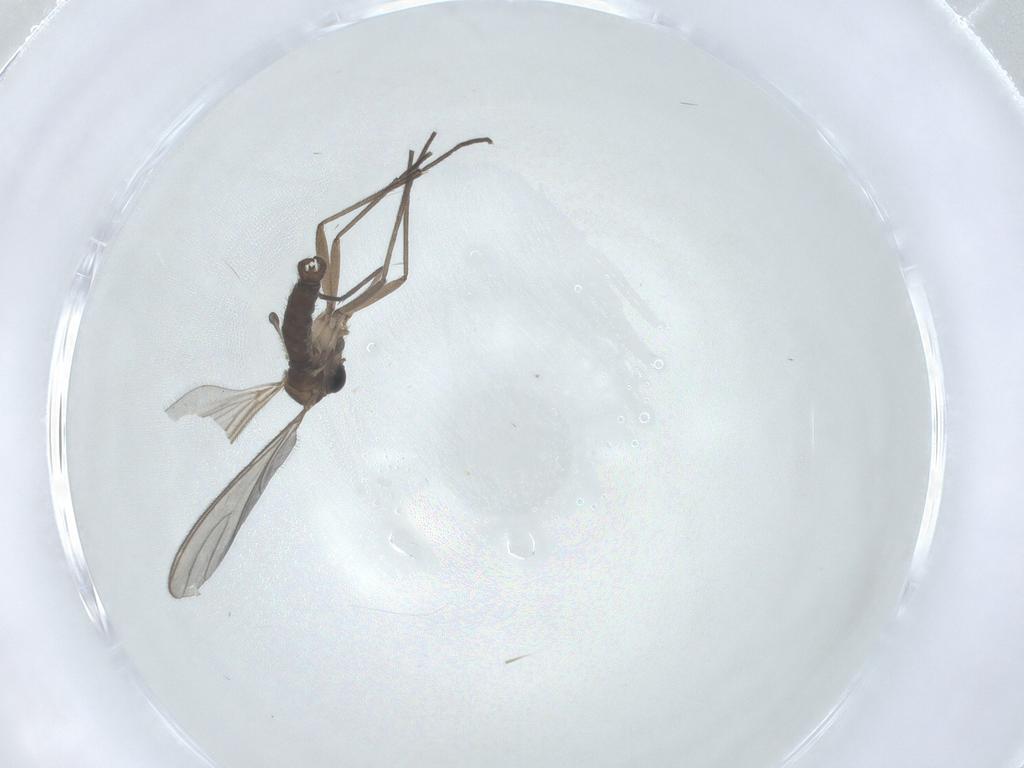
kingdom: Animalia
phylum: Arthropoda
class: Insecta
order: Diptera
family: Sciaridae
